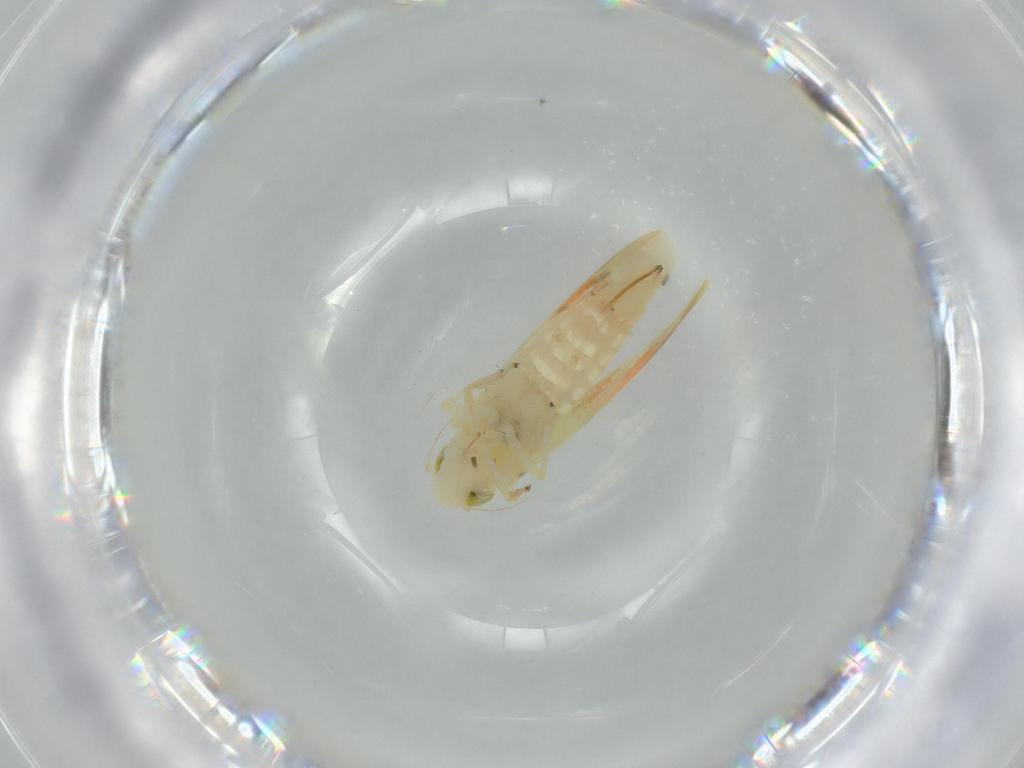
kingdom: Animalia
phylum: Arthropoda
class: Insecta
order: Hemiptera
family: Cicadellidae
